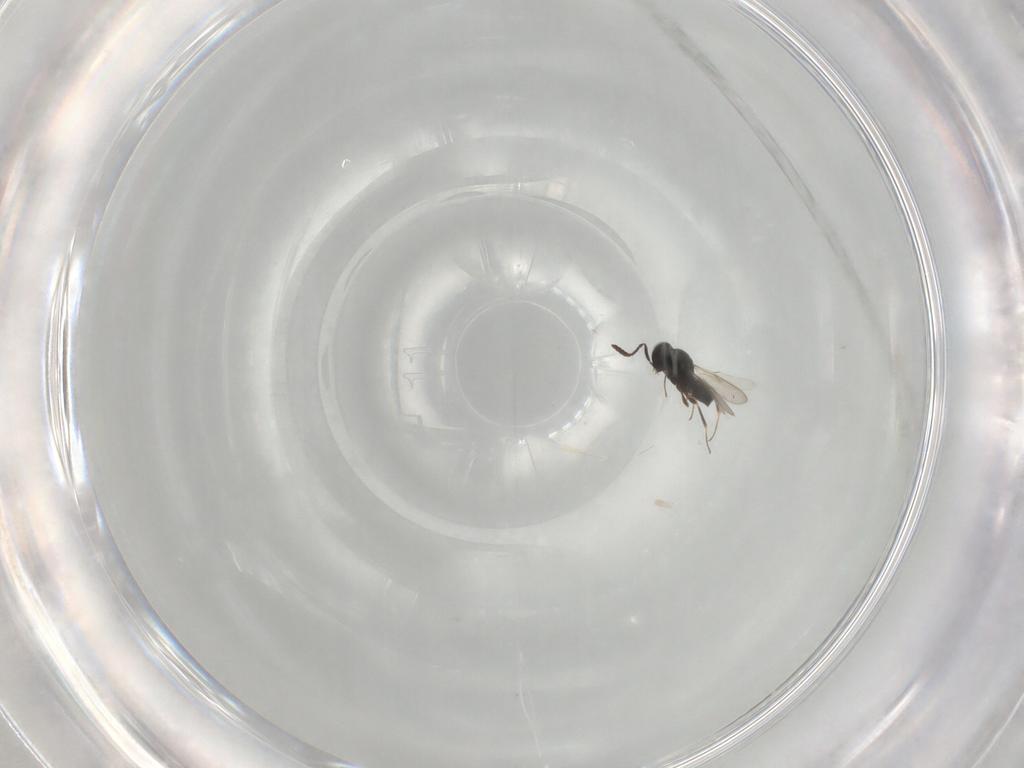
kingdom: Animalia
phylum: Arthropoda
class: Insecta
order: Hymenoptera
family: Scelionidae
